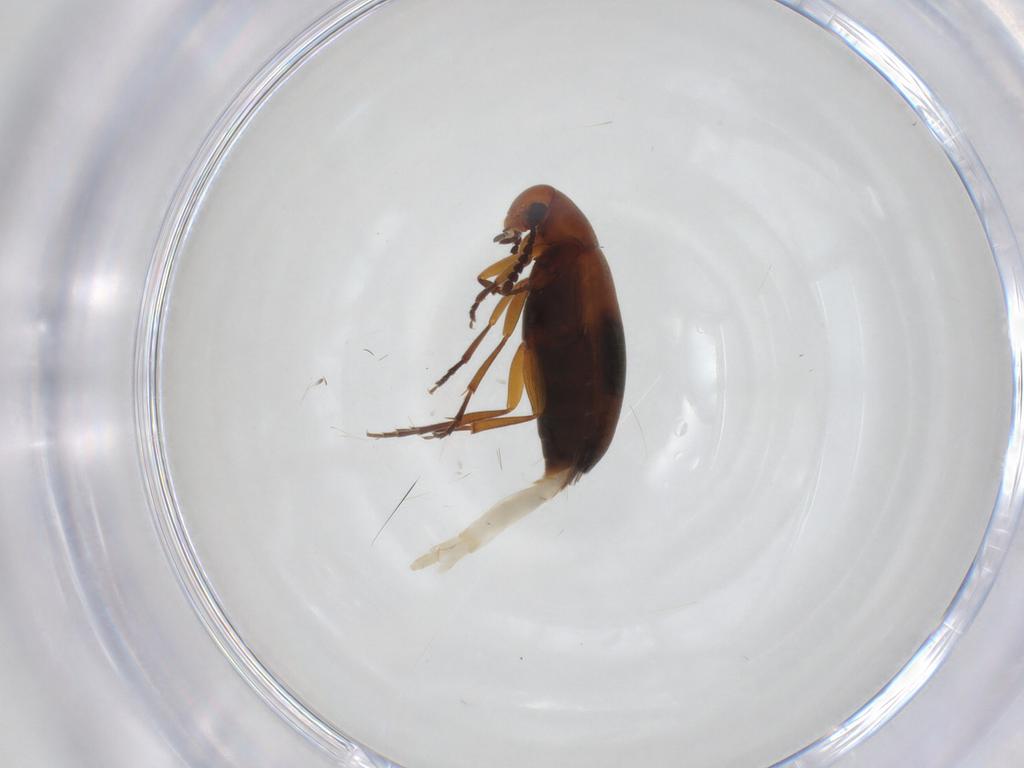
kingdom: Animalia
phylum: Arthropoda
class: Insecta
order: Coleoptera
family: Scraptiidae
